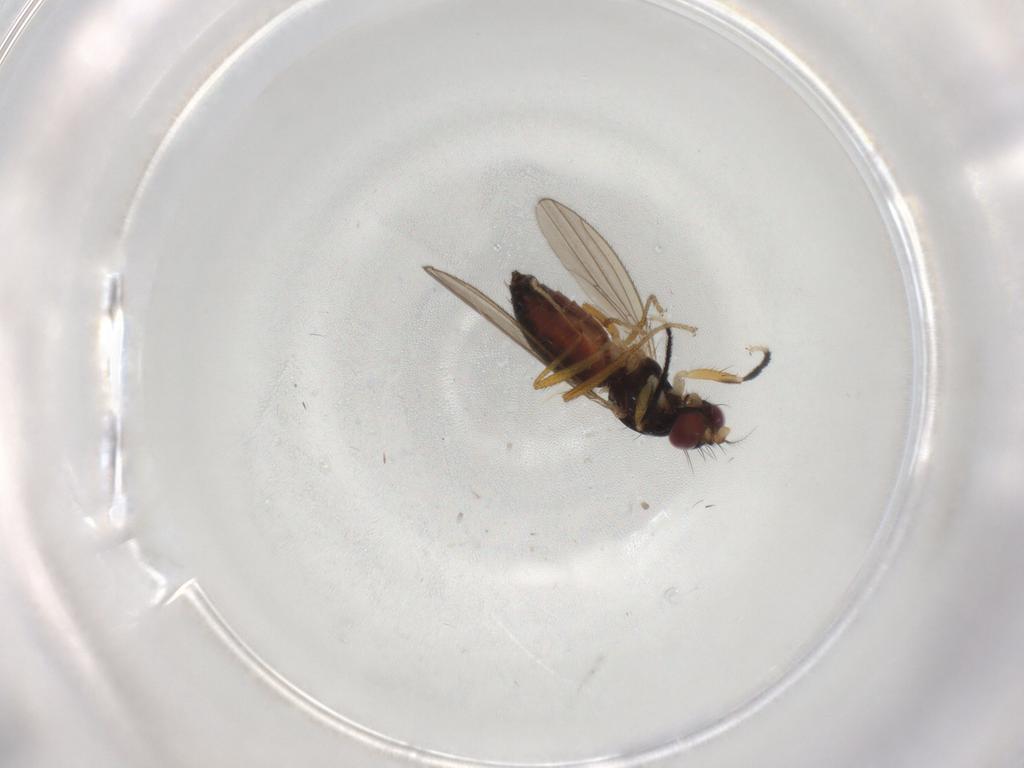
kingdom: Animalia
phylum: Arthropoda
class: Insecta
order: Diptera
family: Anthomyzidae
